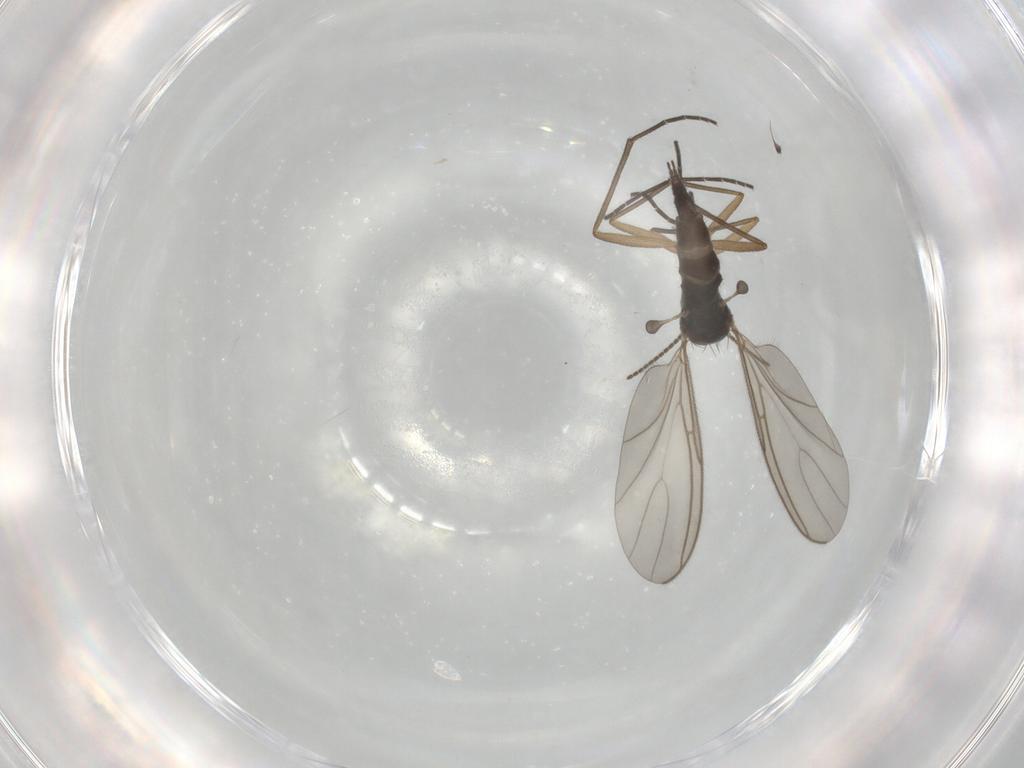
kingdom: Animalia
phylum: Arthropoda
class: Insecta
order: Diptera
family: Sciaridae
